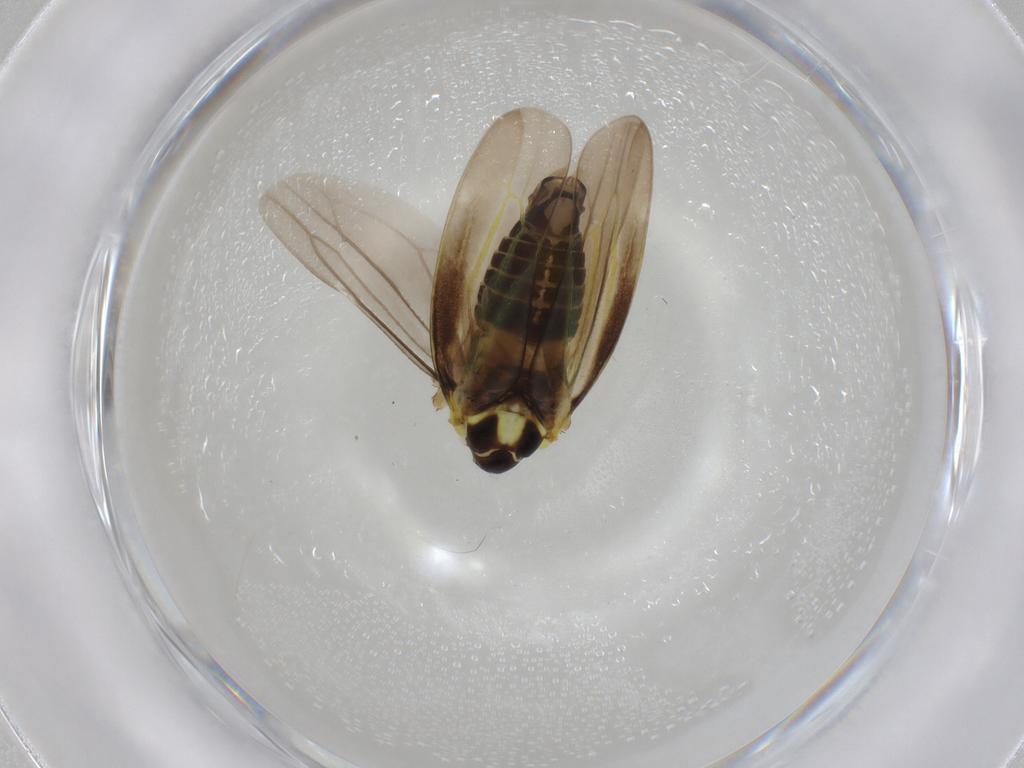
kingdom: Animalia
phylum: Arthropoda
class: Insecta
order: Hemiptera
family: Cicadellidae
